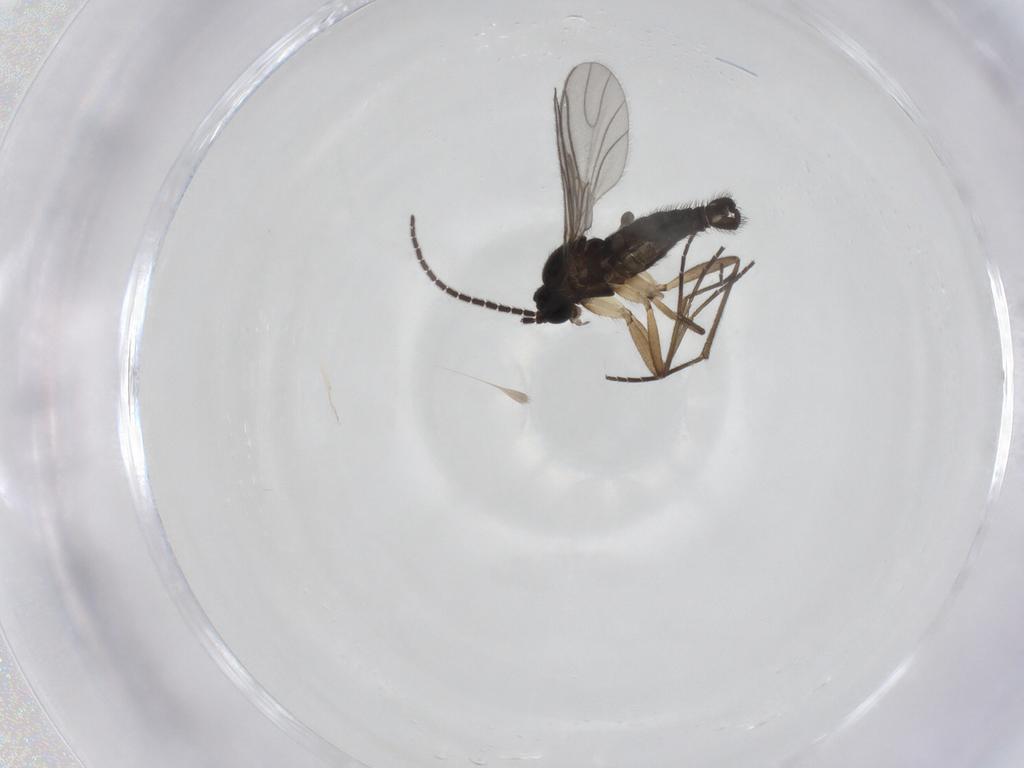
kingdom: Animalia
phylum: Arthropoda
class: Insecta
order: Diptera
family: Sciaridae
